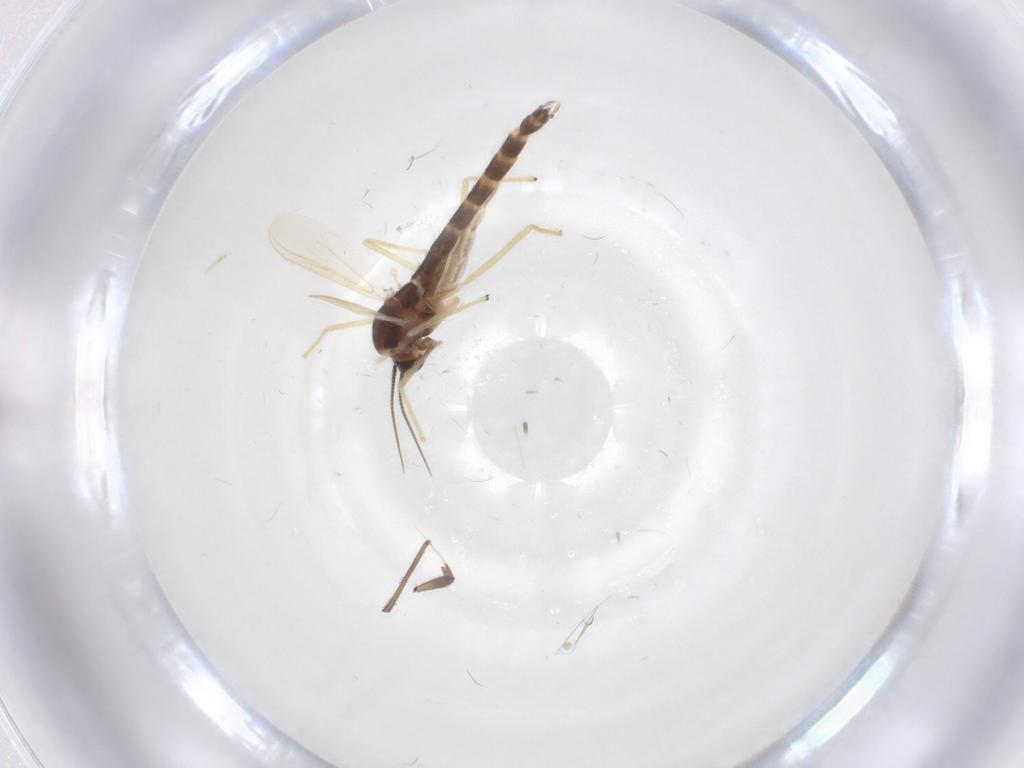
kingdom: Animalia
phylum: Arthropoda
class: Insecta
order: Diptera
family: Chironomidae
